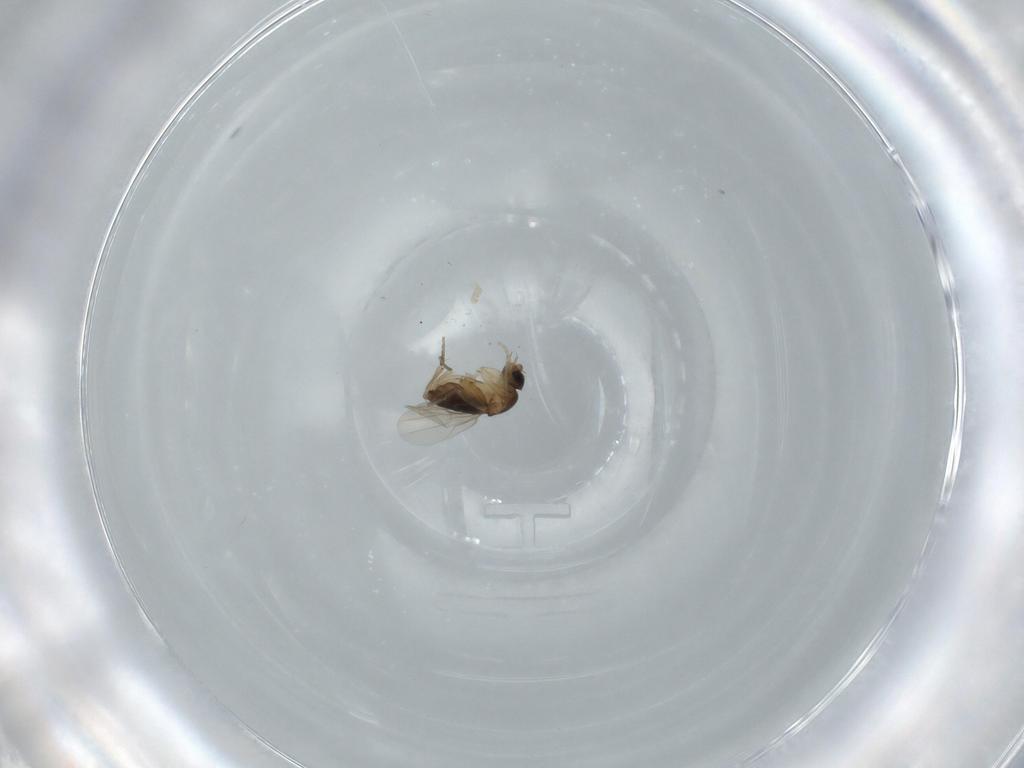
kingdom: Animalia
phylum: Arthropoda
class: Insecta
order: Diptera
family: Phoridae
